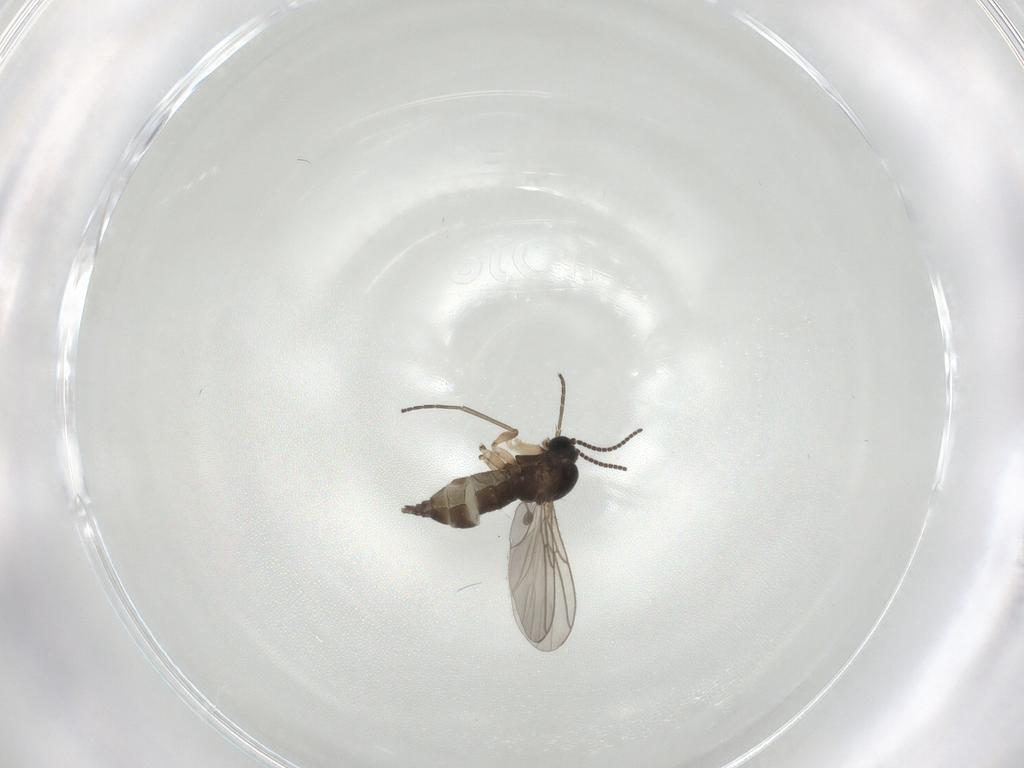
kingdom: Animalia
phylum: Arthropoda
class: Insecta
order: Diptera
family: Sciaridae
